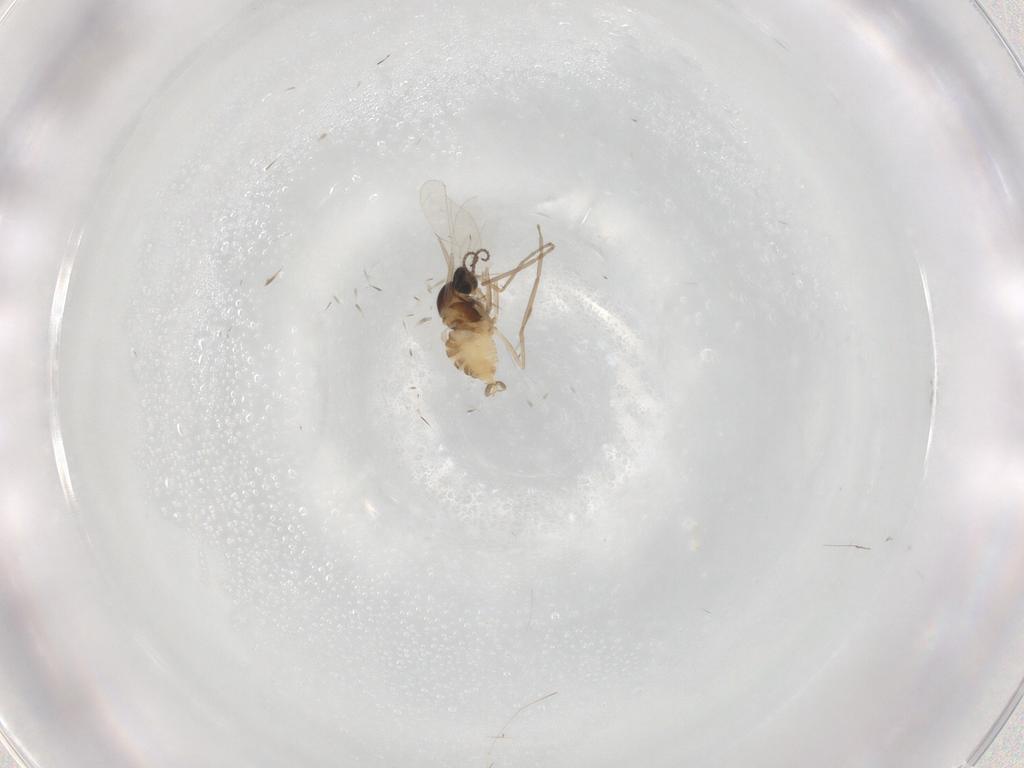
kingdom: Animalia
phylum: Arthropoda
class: Insecta
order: Diptera
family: Cecidomyiidae
